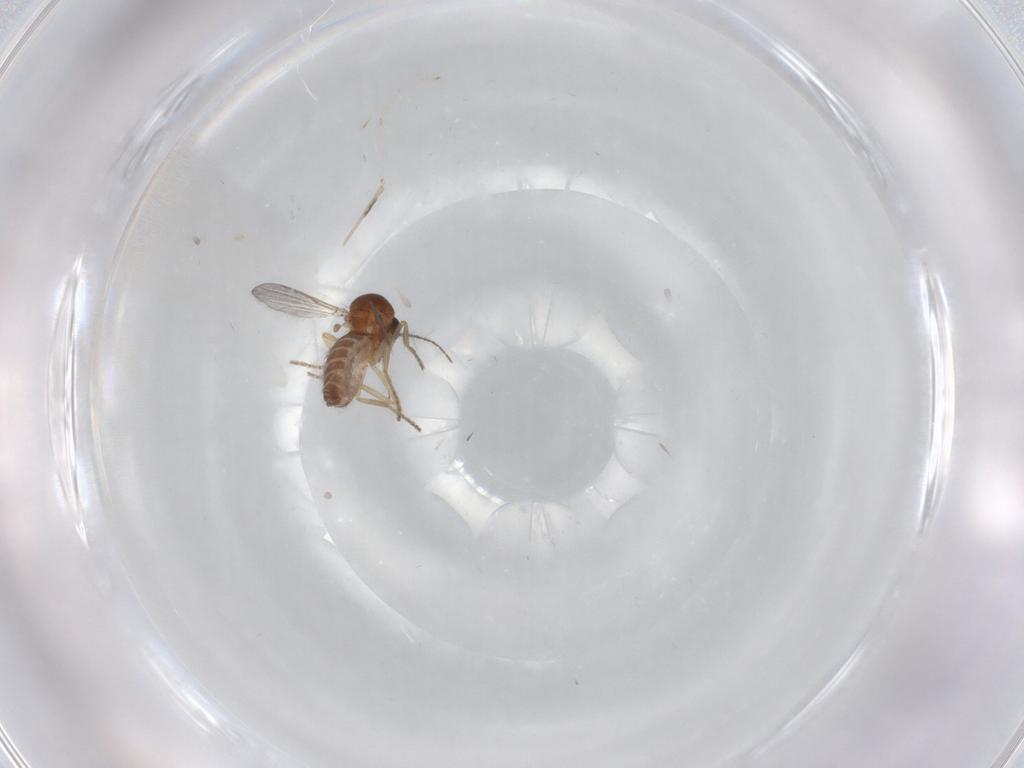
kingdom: Animalia
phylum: Arthropoda
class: Insecta
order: Diptera
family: Ceratopogonidae
